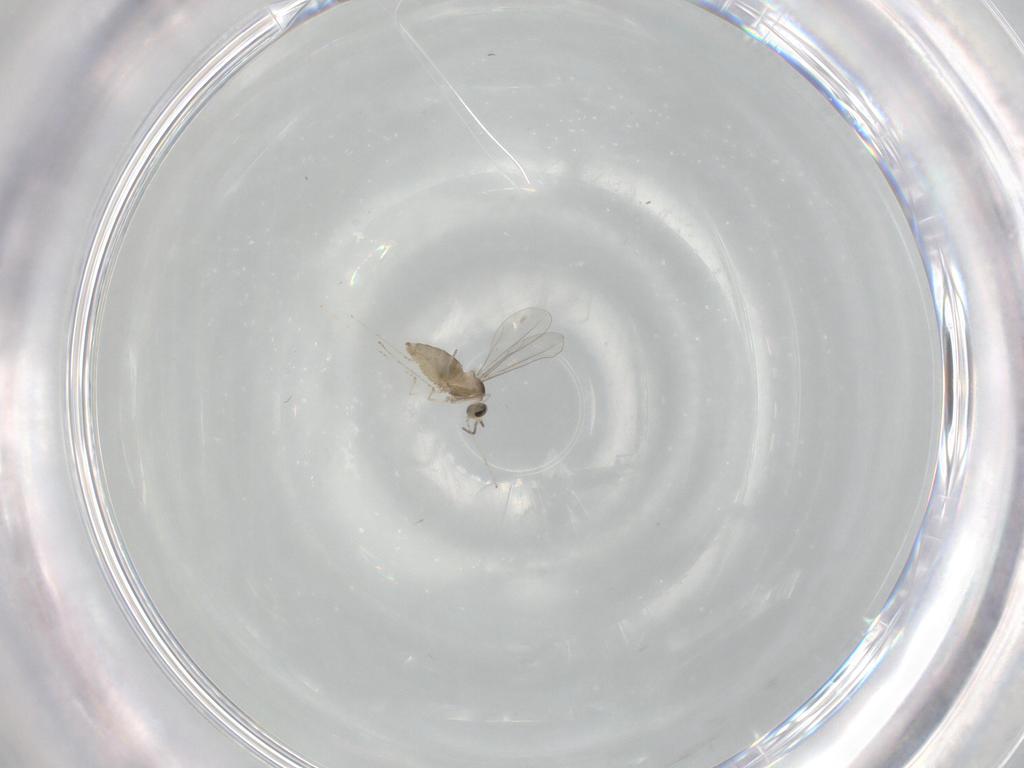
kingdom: Animalia
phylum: Arthropoda
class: Insecta
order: Diptera
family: Cecidomyiidae
